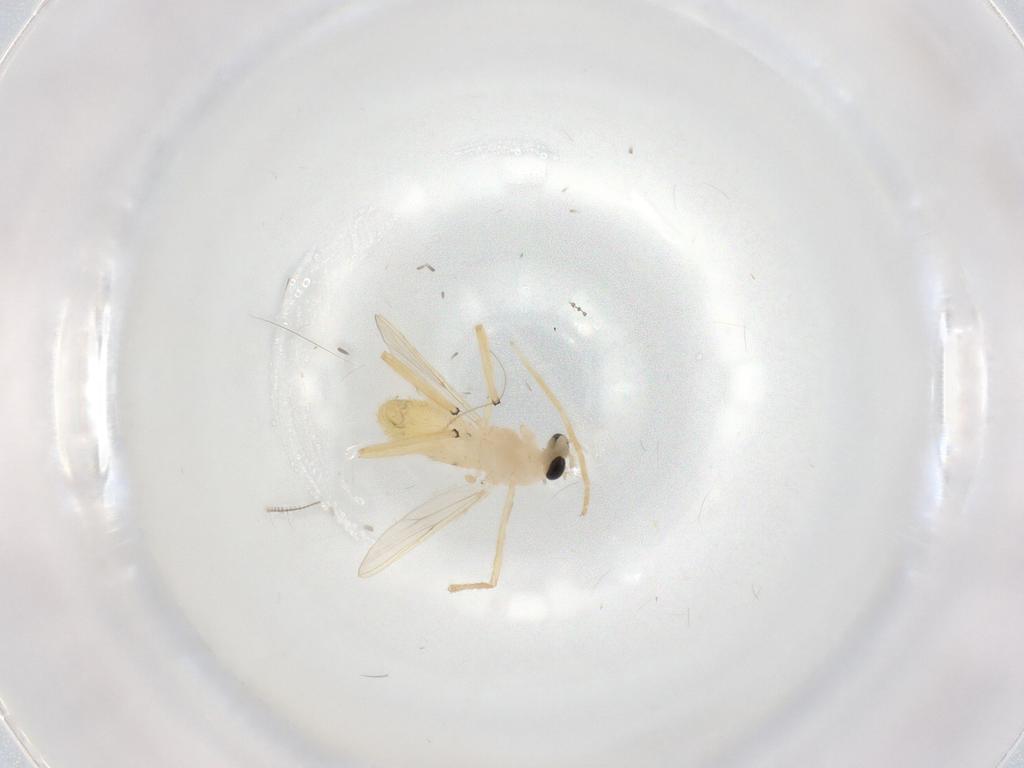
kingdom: Animalia
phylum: Arthropoda
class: Insecta
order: Diptera
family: Chironomidae
